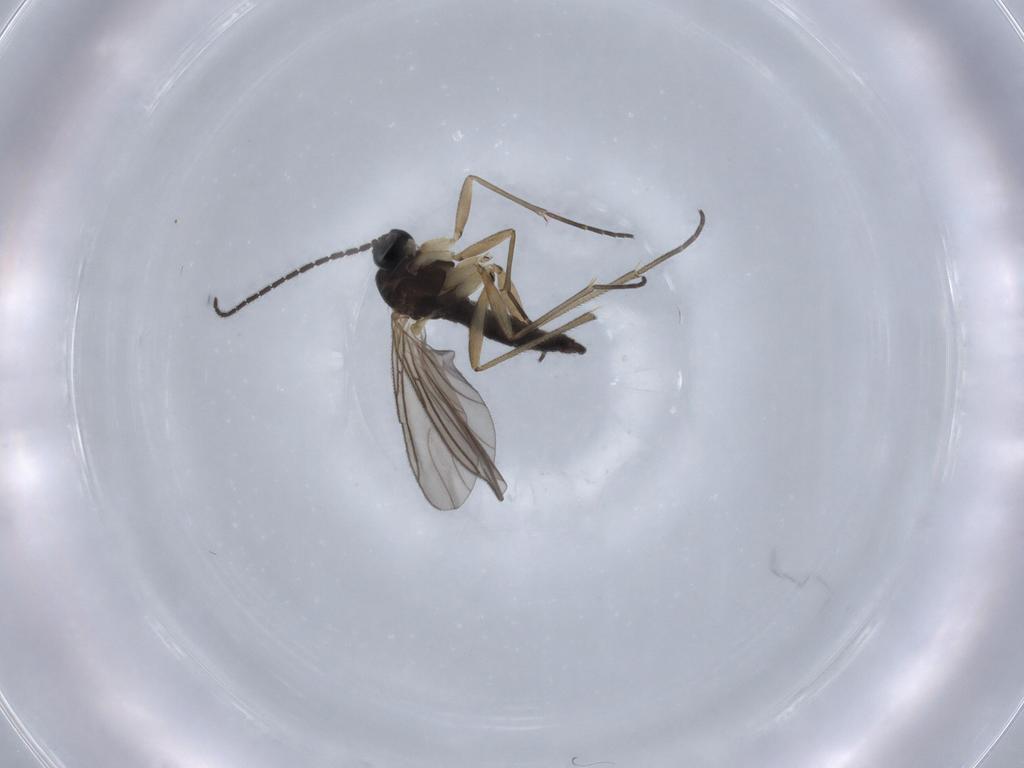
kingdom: Animalia
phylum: Arthropoda
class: Insecta
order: Diptera
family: Sciaridae
